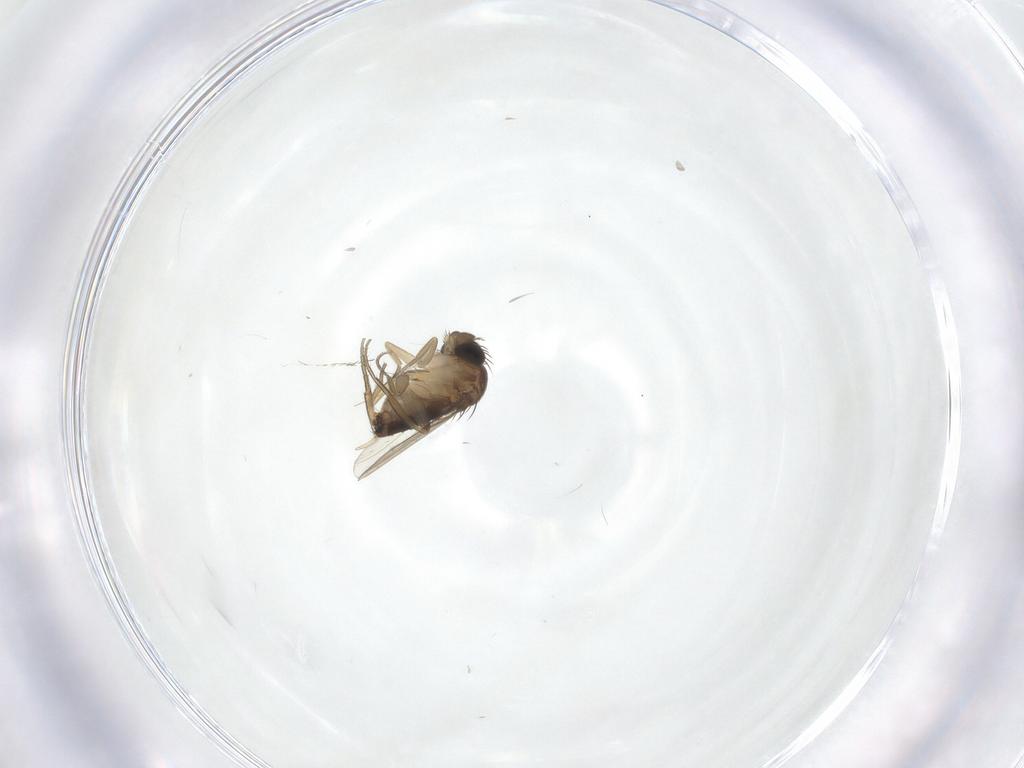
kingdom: Animalia
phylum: Arthropoda
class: Insecta
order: Diptera
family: Phoridae
